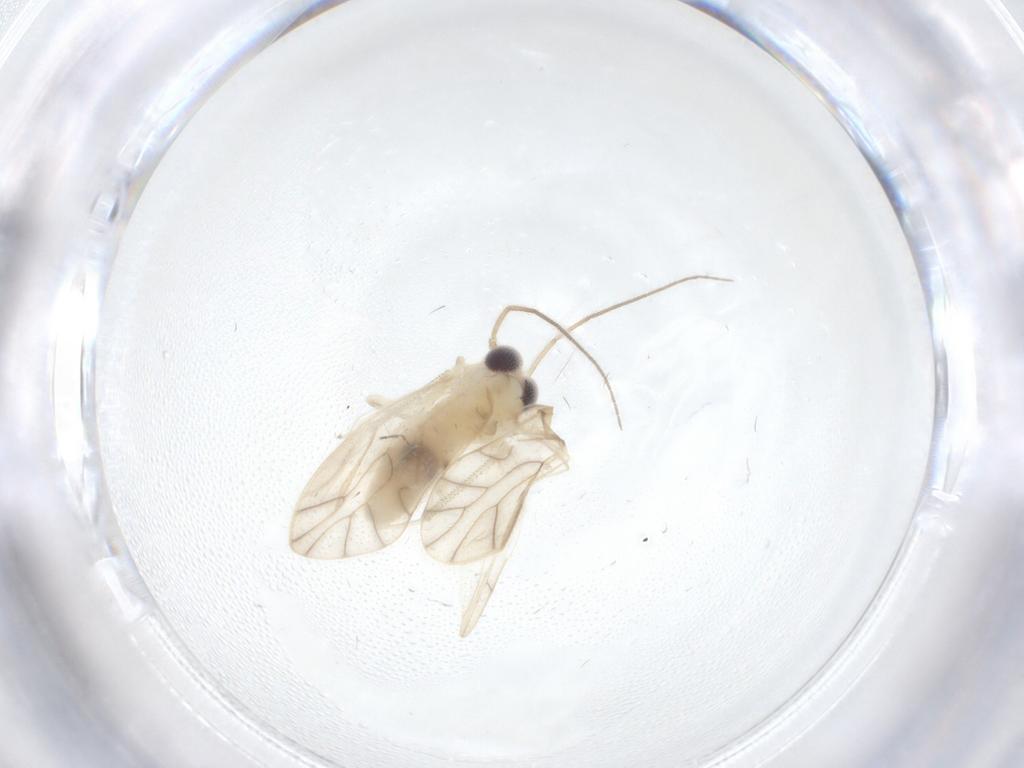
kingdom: Animalia
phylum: Arthropoda
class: Insecta
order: Psocodea
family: Caeciliusidae
